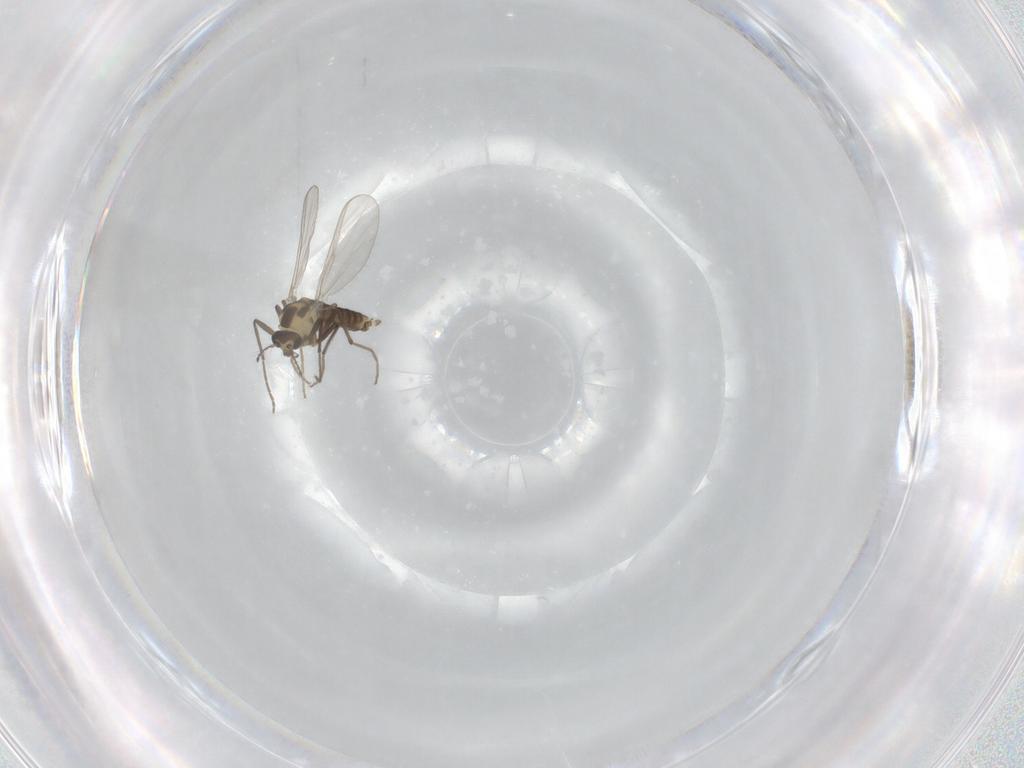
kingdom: Animalia
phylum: Arthropoda
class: Insecta
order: Diptera
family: Chironomidae
